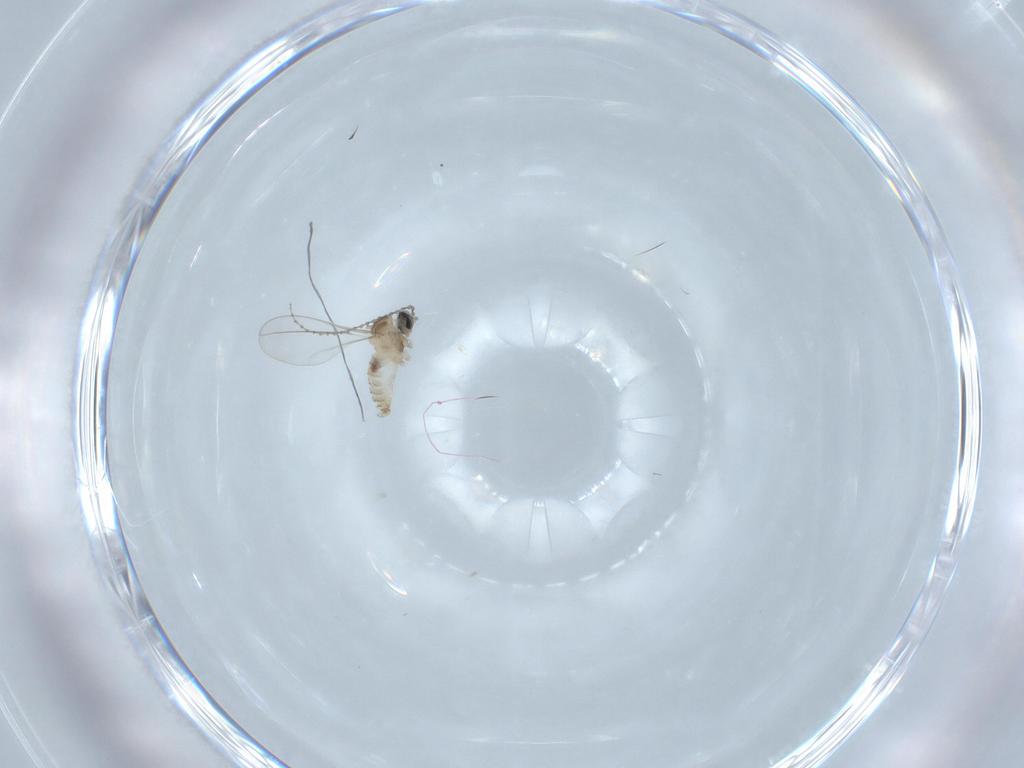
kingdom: Animalia
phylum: Arthropoda
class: Insecta
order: Diptera
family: Cecidomyiidae
